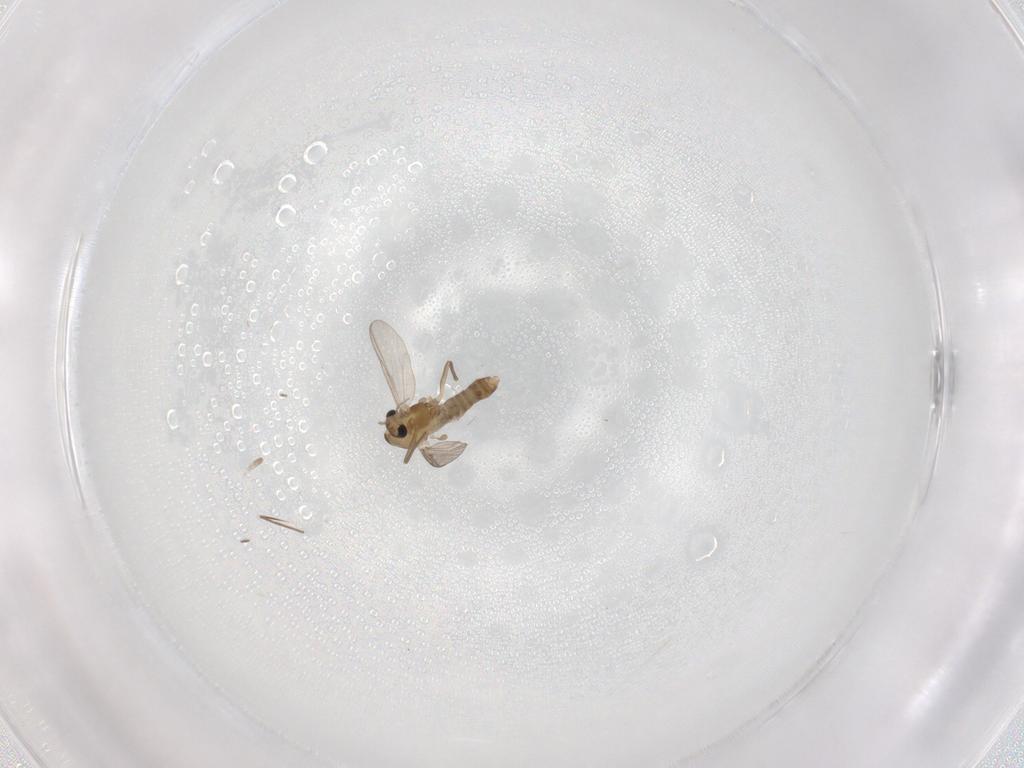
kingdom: Animalia
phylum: Arthropoda
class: Insecta
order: Diptera
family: Chironomidae
